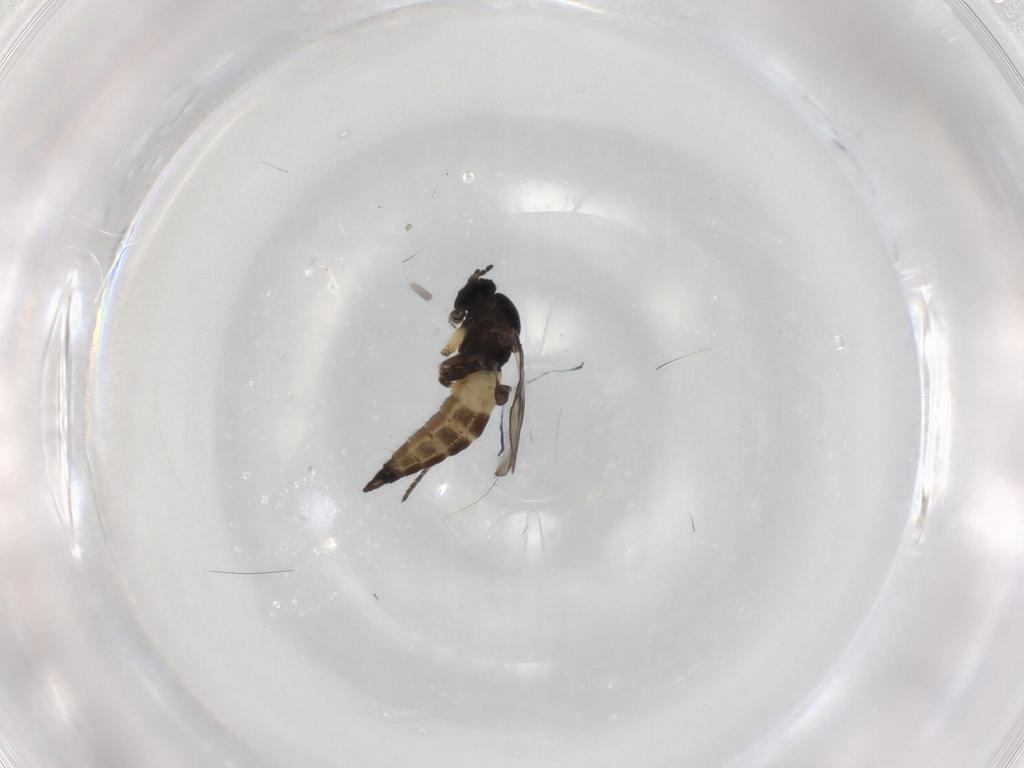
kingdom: Animalia
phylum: Arthropoda
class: Insecta
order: Diptera
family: Sciaridae
